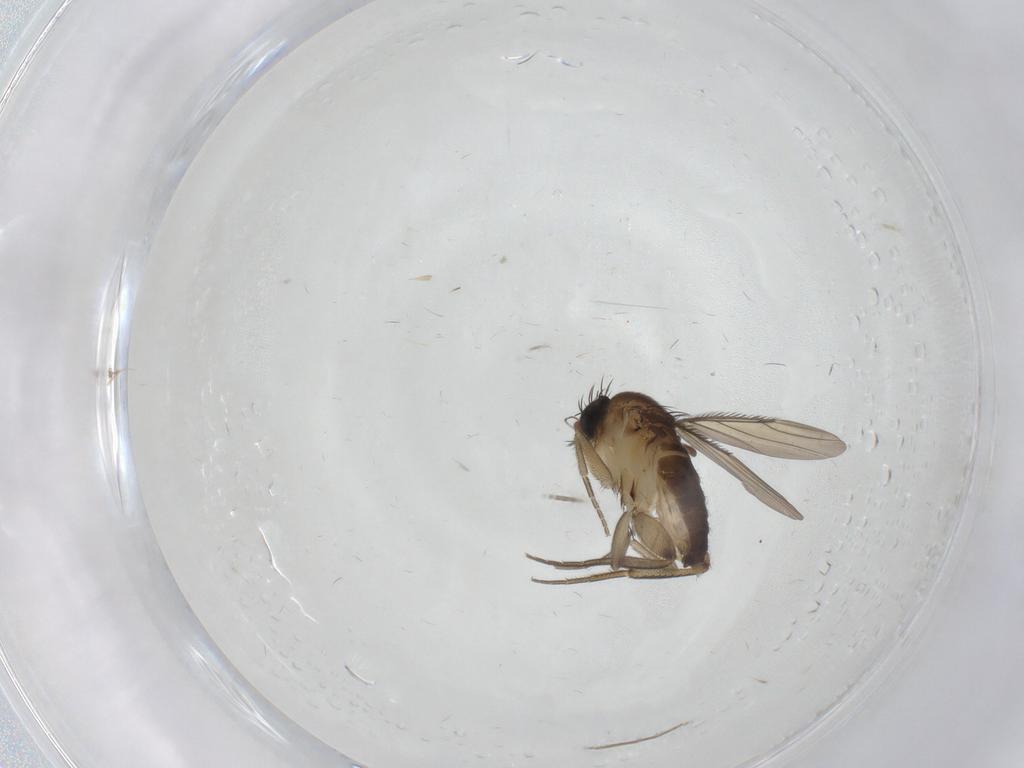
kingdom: Animalia
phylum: Arthropoda
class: Insecta
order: Diptera
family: Phoridae
